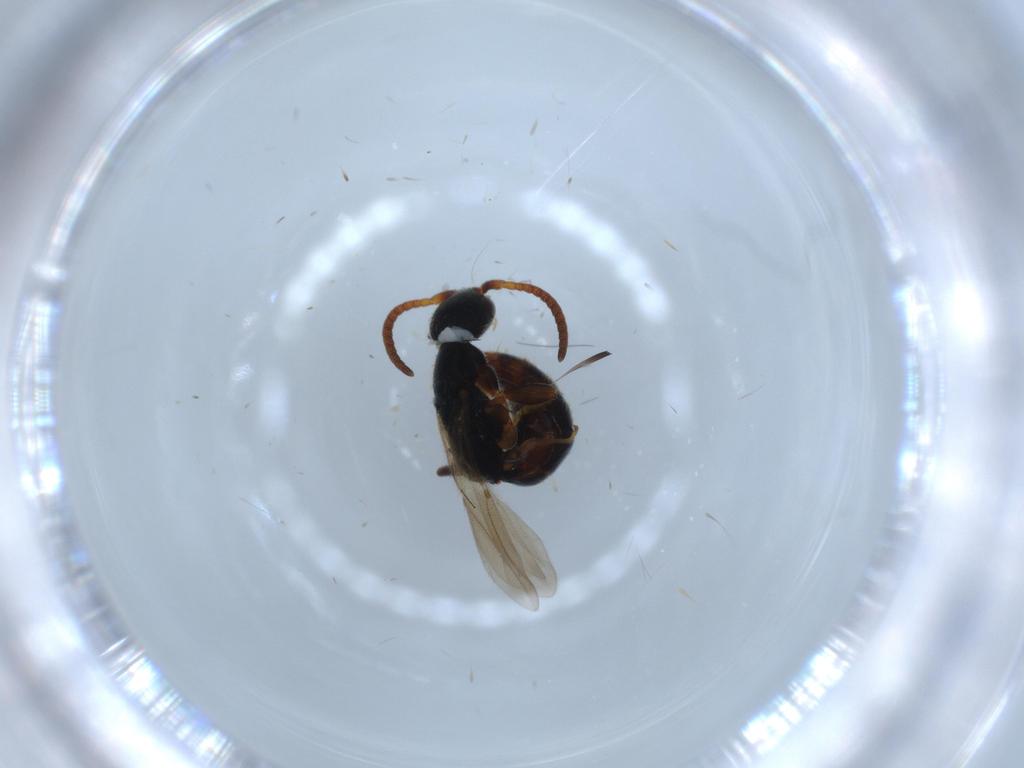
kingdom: Animalia
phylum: Arthropoda
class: Insecta
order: Hymenoptera
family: Bethylidae
